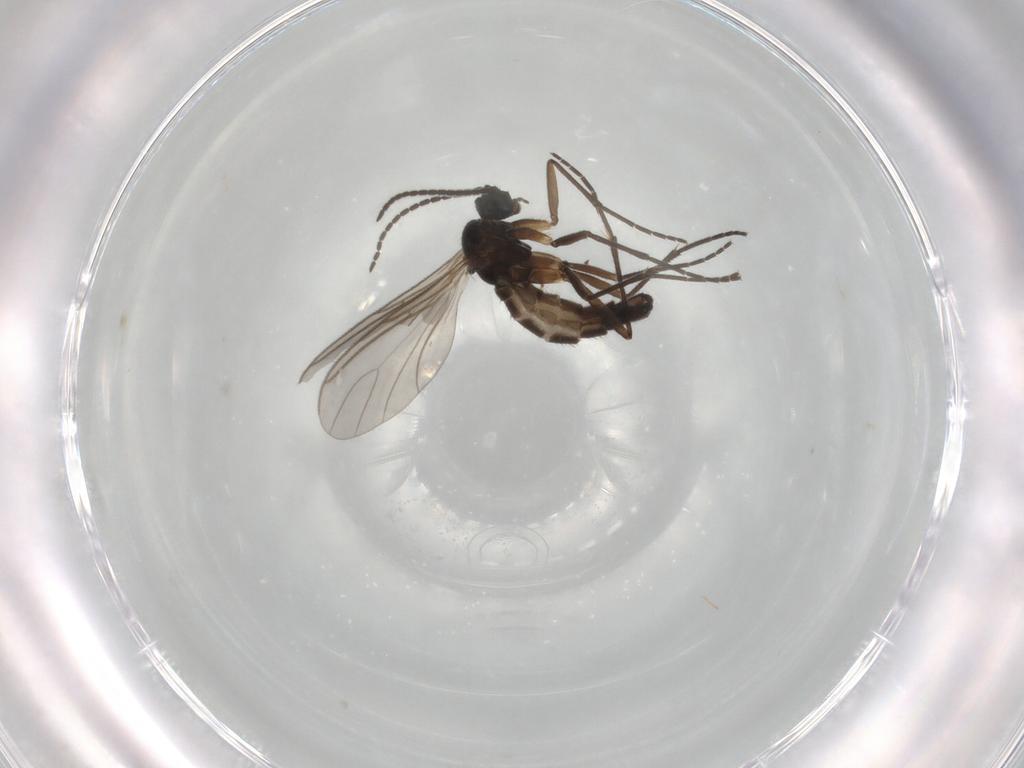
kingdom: Animalia
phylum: Arthropoda
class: Insecta
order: Diptera
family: Sciaridae
